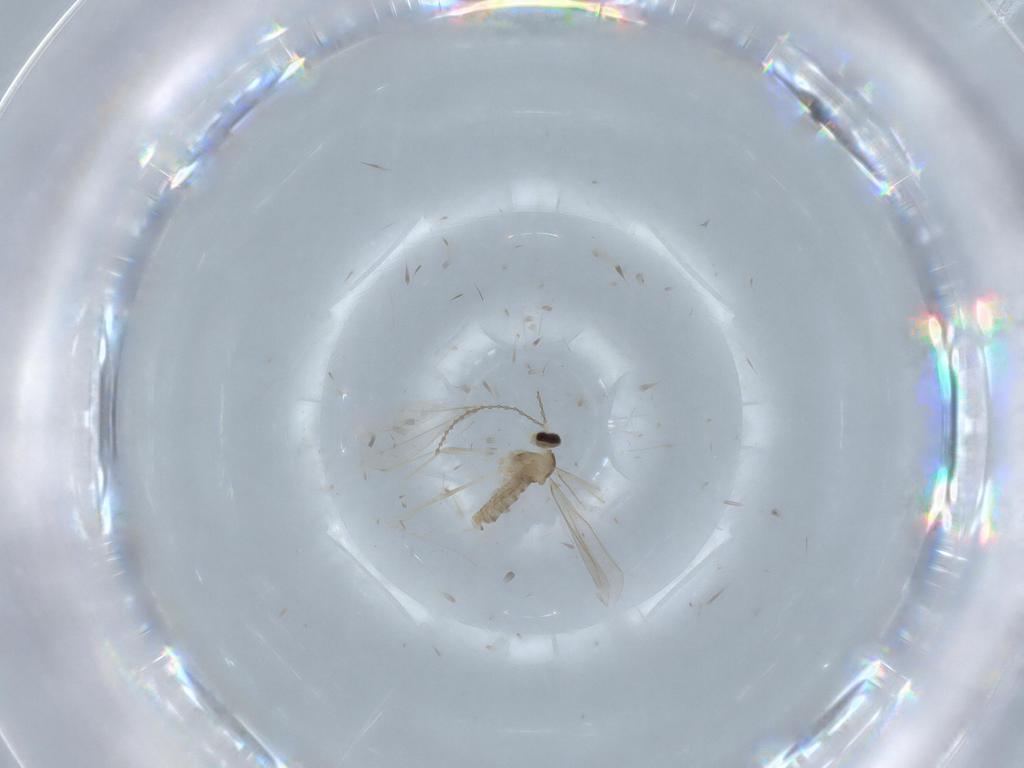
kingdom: Animalia
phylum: Arthropoda
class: Insecta
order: Diptera
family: Cecidomyiidae
